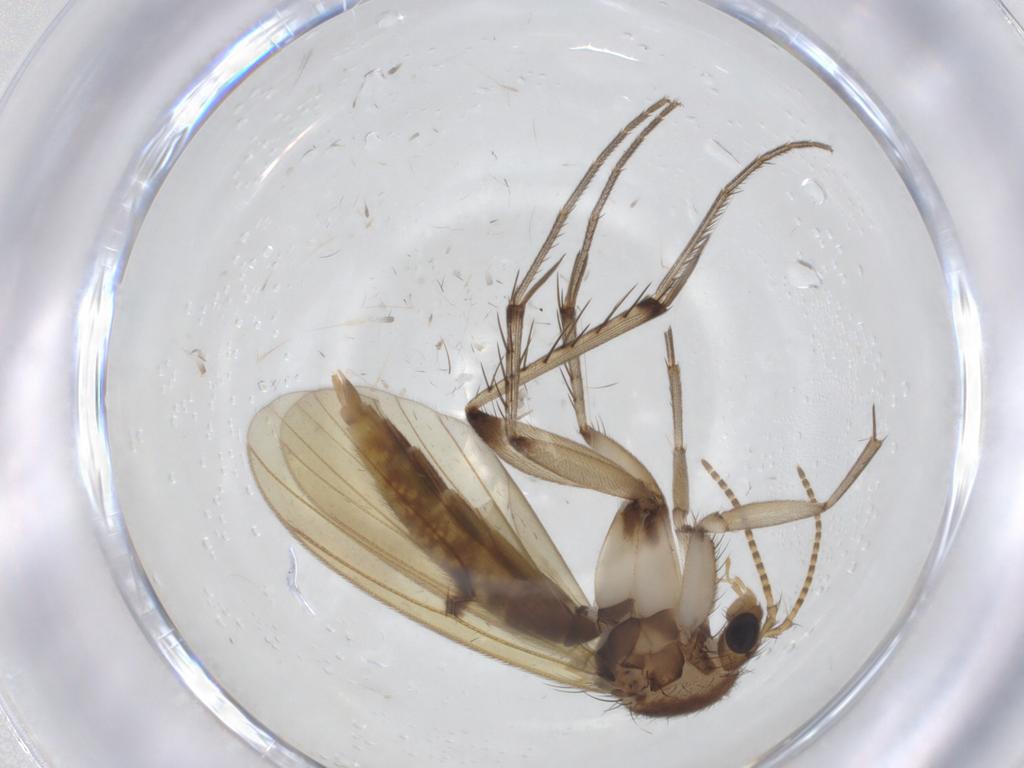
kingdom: Animalia
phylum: Arthropoda
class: Insecta
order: Diptera
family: Mycetophilidae
